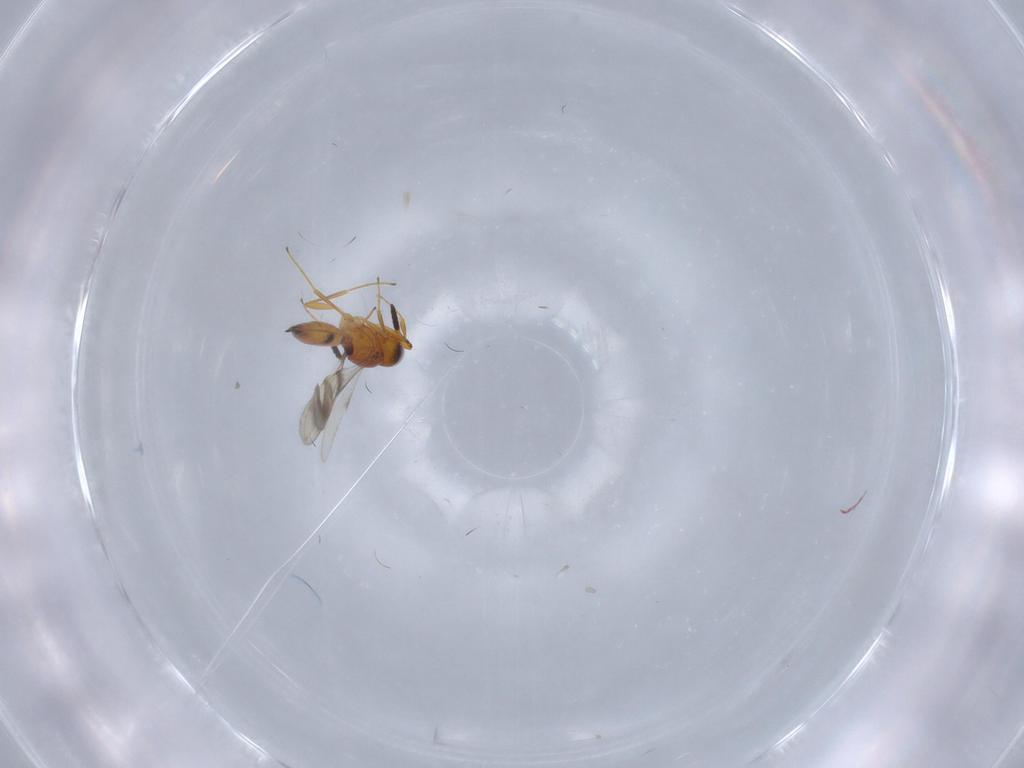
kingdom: Animalia
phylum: Arthropoda
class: Insecta
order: Hymenoptera
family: Scelionidae
